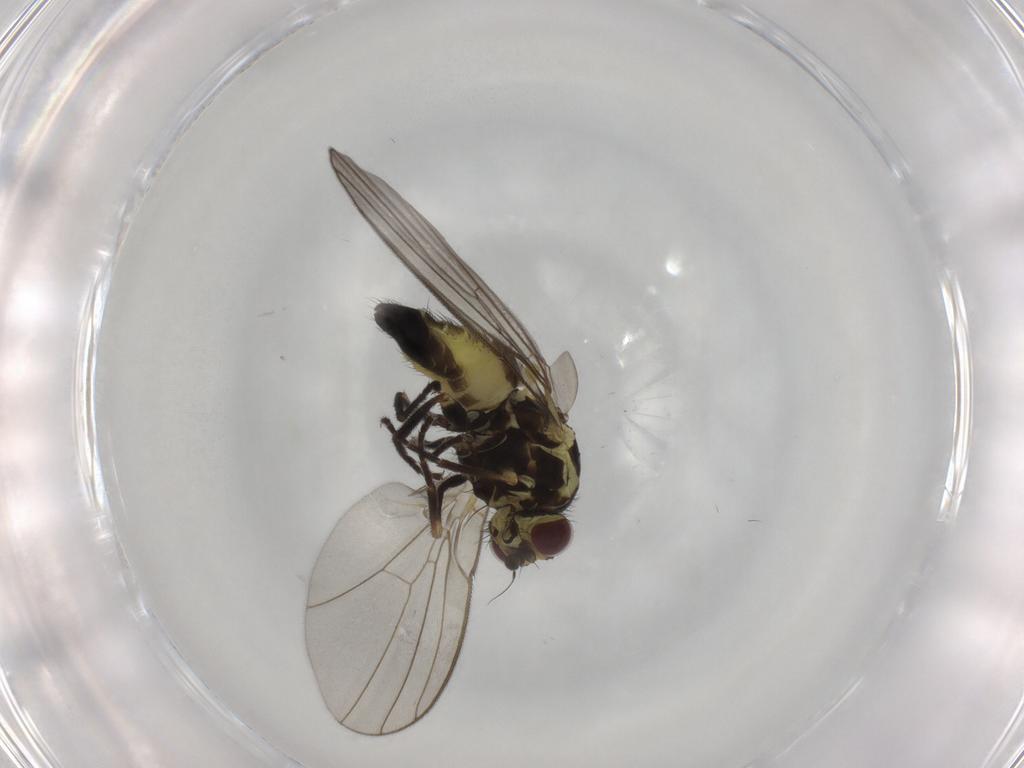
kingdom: Animalia
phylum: Arthropoda
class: Insecta
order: Diptera
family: Agromyzidae
